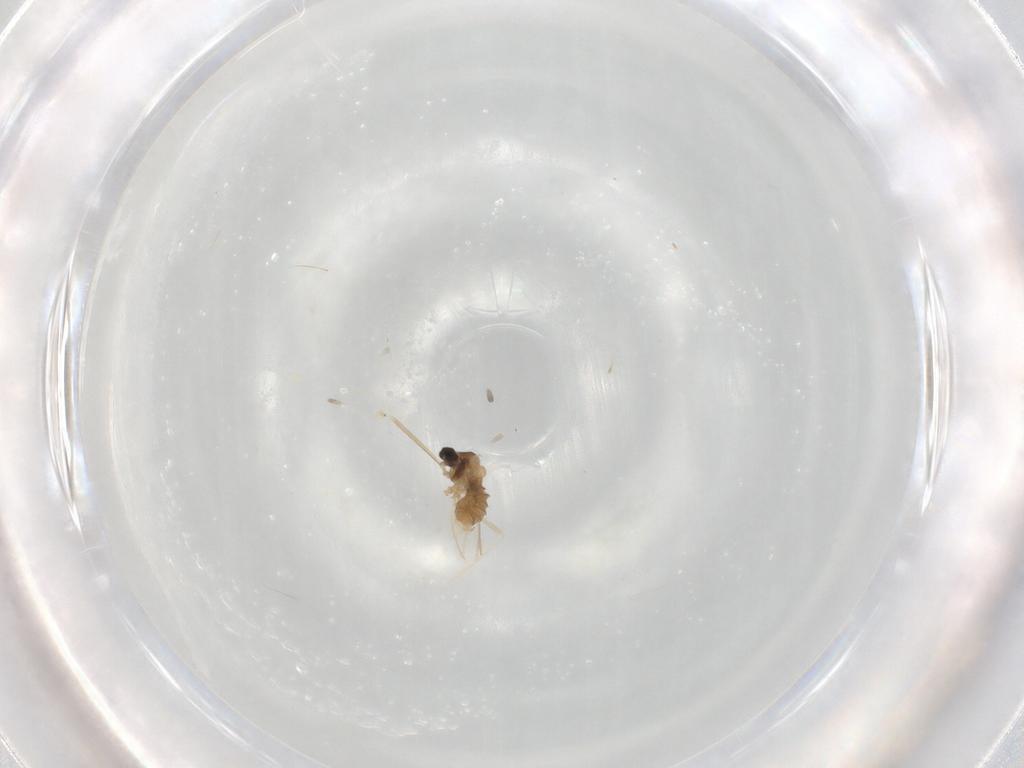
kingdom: Animalia
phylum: Arthropoda
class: Insecta
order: Diptera
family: Cecidomyiidae
